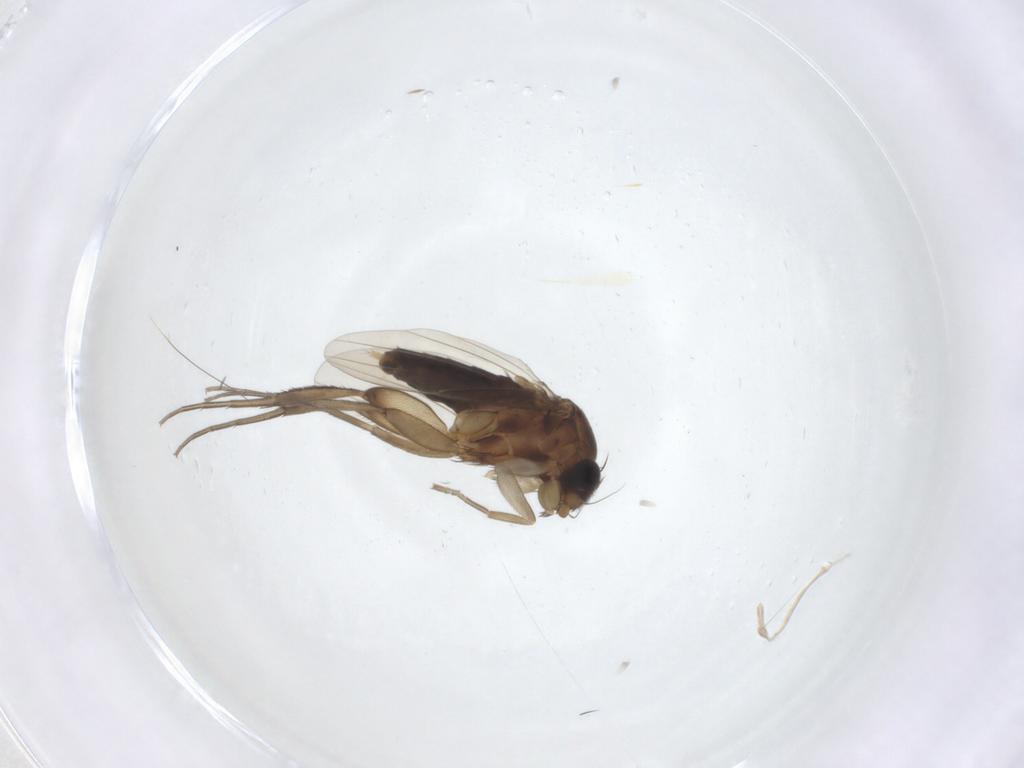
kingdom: Animalia
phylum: Arthropoda
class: Insecta
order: Diptera
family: Phoridae
